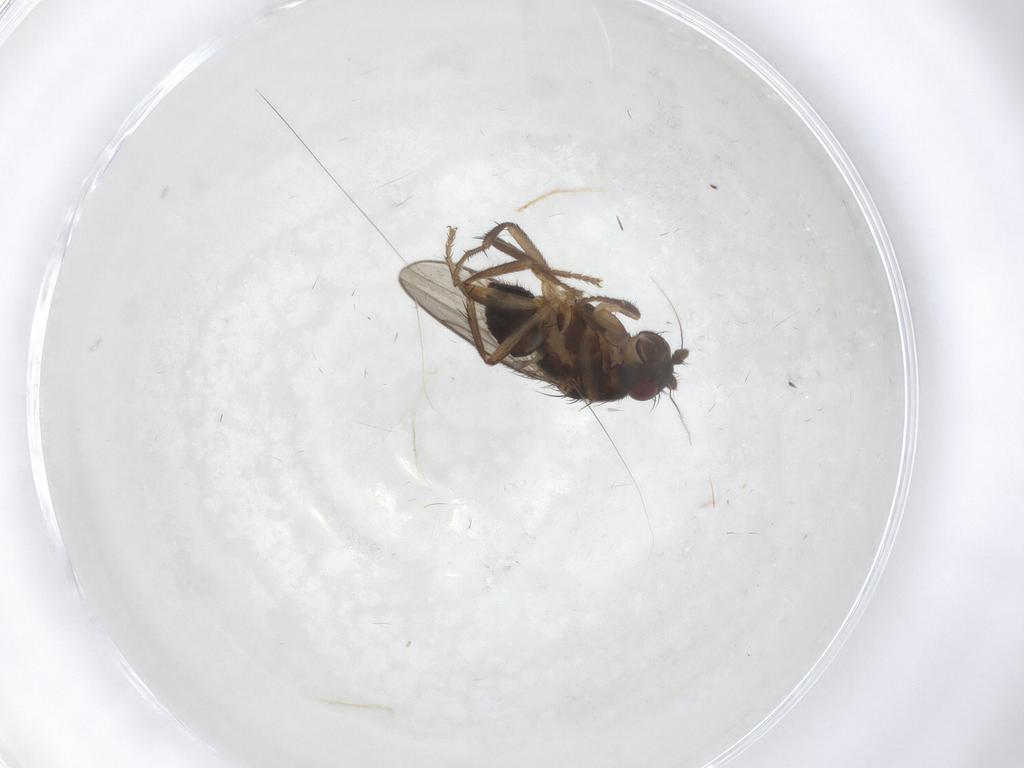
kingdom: Animalia
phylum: Arthropoda
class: Insecta
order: Diptera
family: Sphaeroceridae
